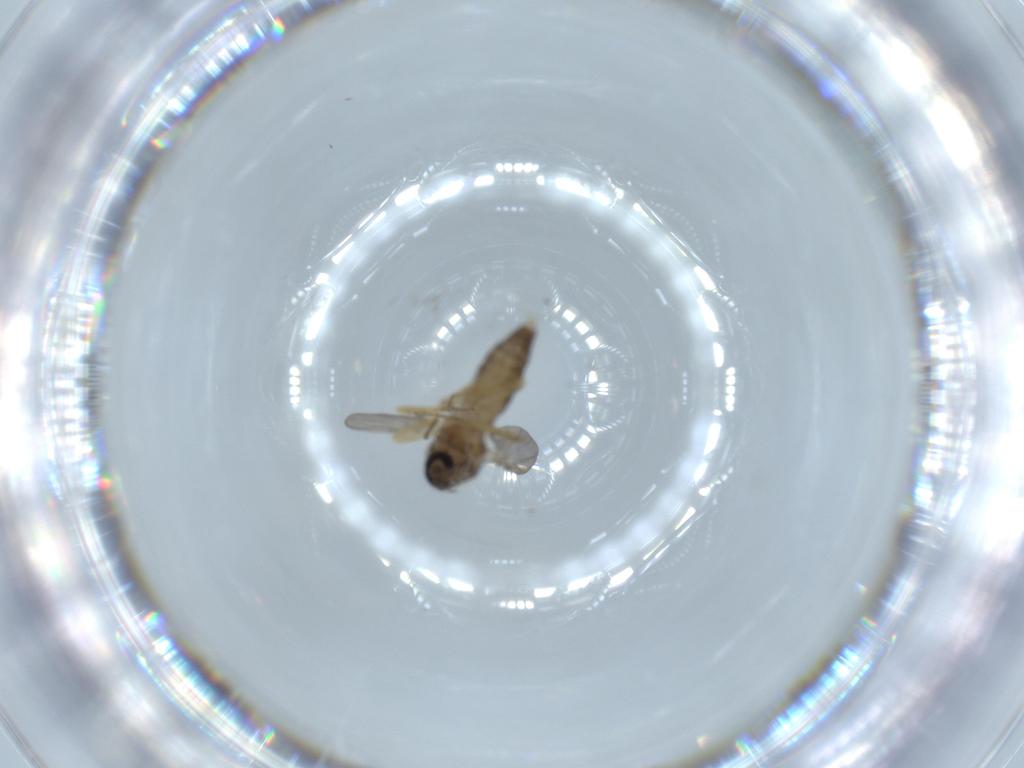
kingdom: Animalia
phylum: Arthropoda
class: Insecta
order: Diptera
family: Ceratopogonidae
